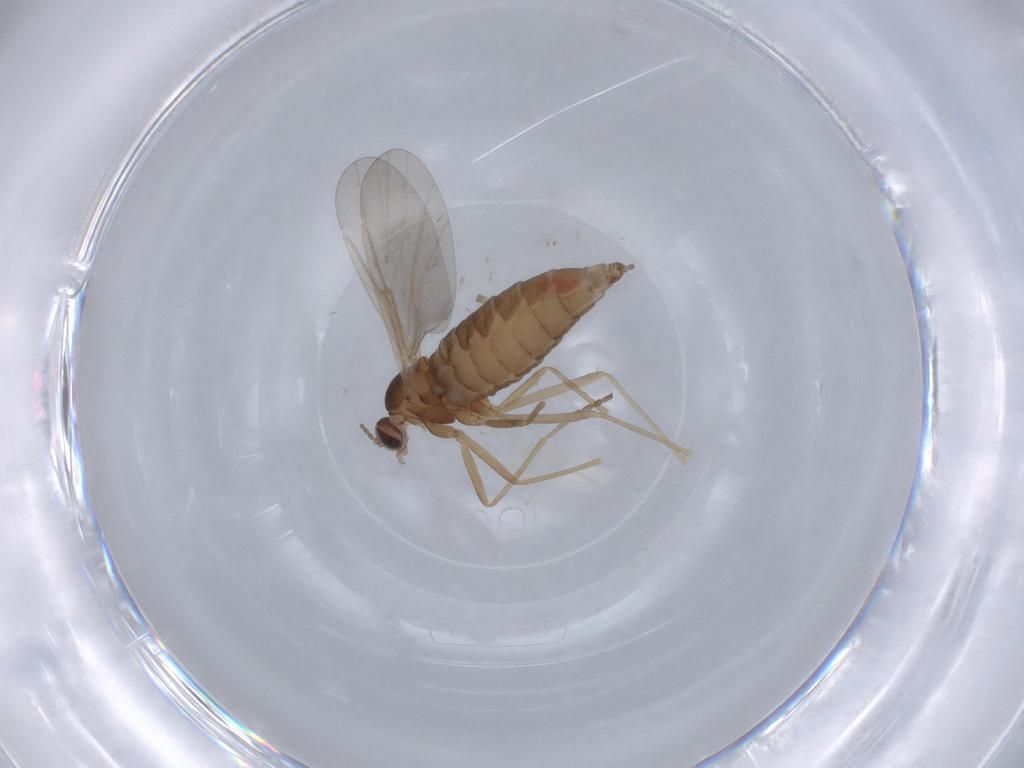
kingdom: Animalia
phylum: Arthropoda
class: Insecta
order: Diptera
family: Cecidomyiidae
